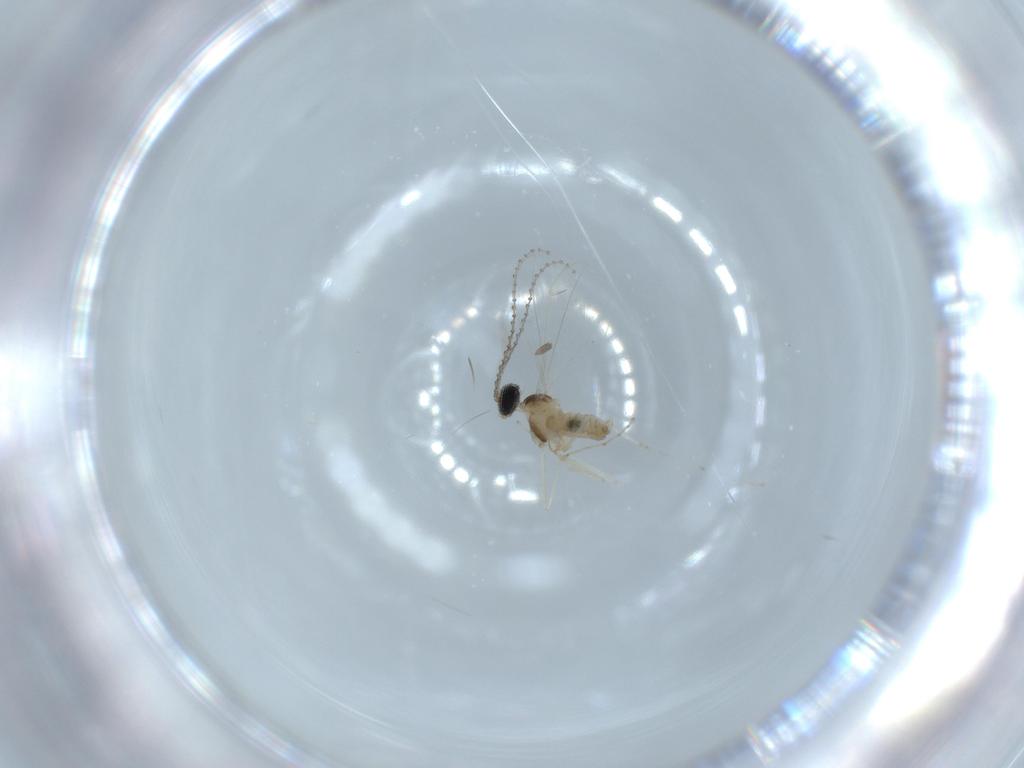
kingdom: Animalia
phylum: Arthropoda
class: Insecta
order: Diptera
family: Cecidomyiidae
